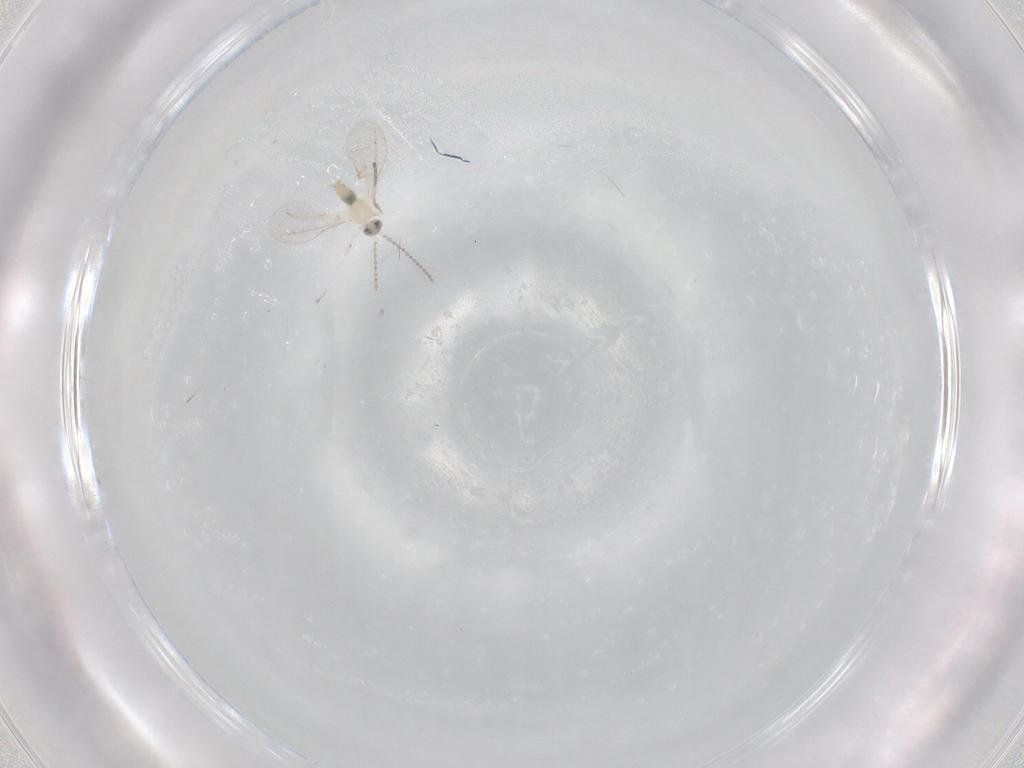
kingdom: Animalia
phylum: Arthropoda
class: Insecta
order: Diptera
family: Cecidomyiidae
